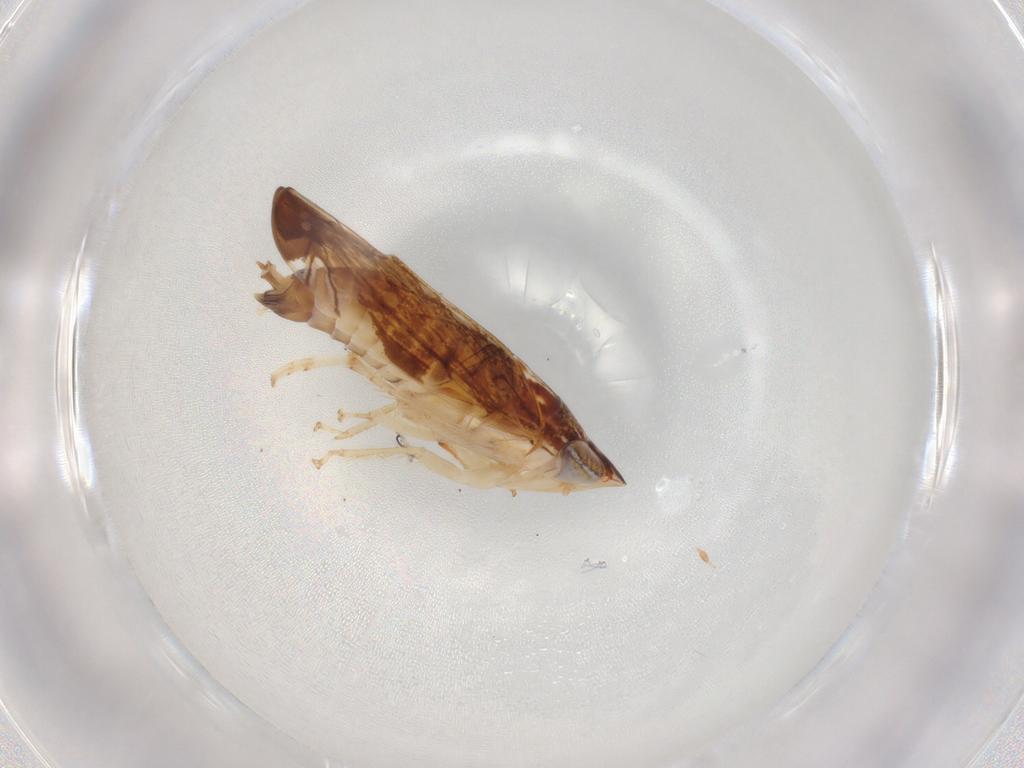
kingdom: Animalia
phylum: Arthropoda
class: Insecta
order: Hemiptera
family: Cicadellidae
